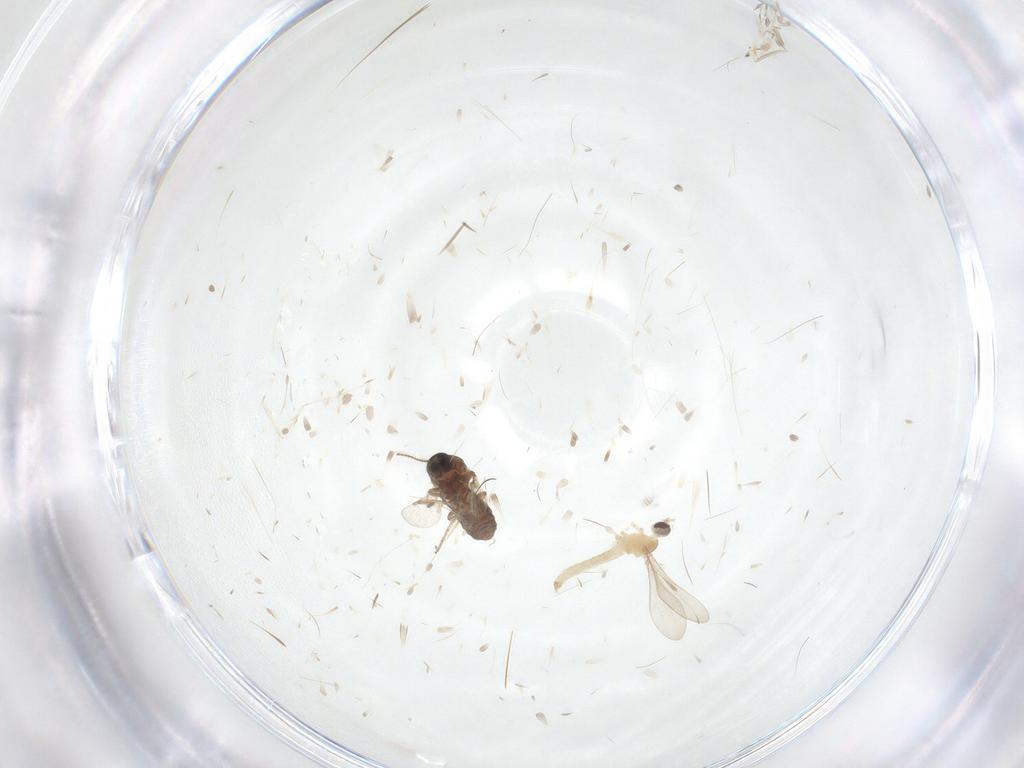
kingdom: Animalia
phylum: Arthropoda
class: Insecta
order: Diptera
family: Ceratopogonidae
